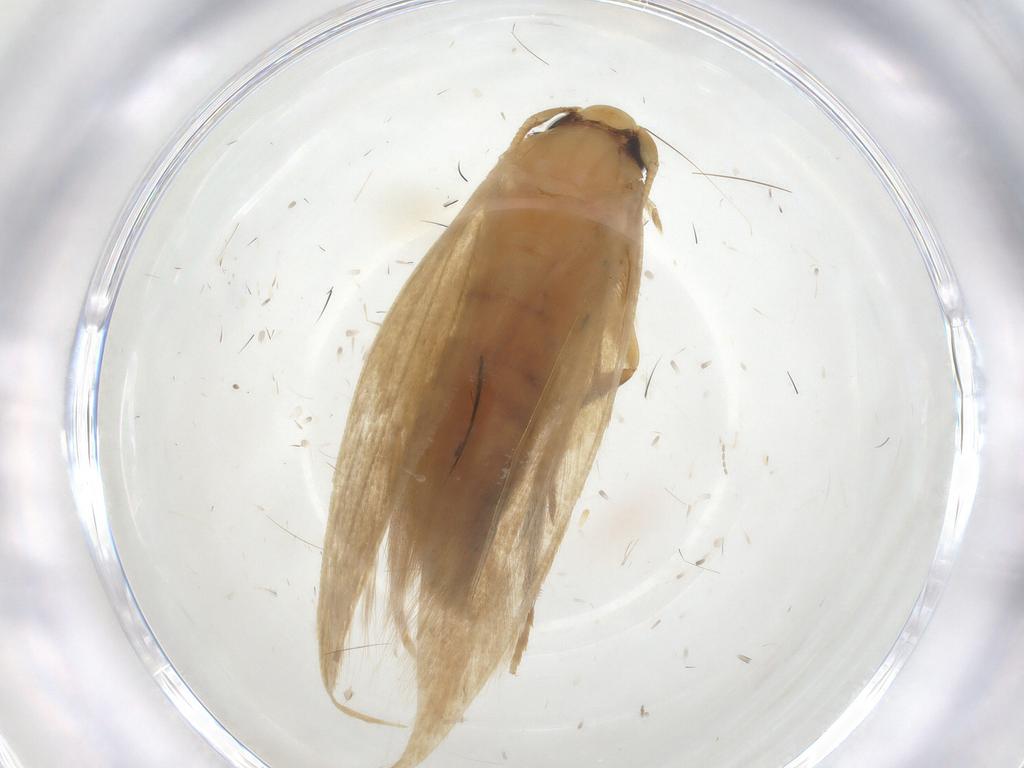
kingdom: Animalia
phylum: Arthropoda
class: Insecta
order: Lepidoptera
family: Tineidae
